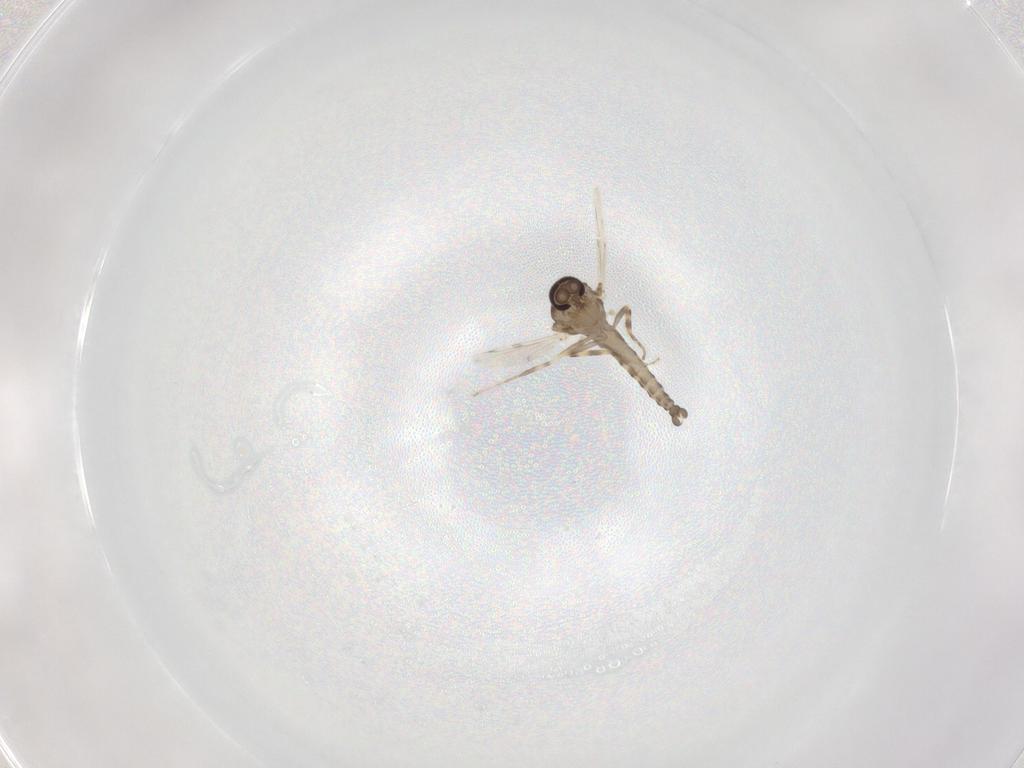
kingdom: Animalia
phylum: Arthropoda
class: Insecta
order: Diptera
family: Ceratopogonidae
